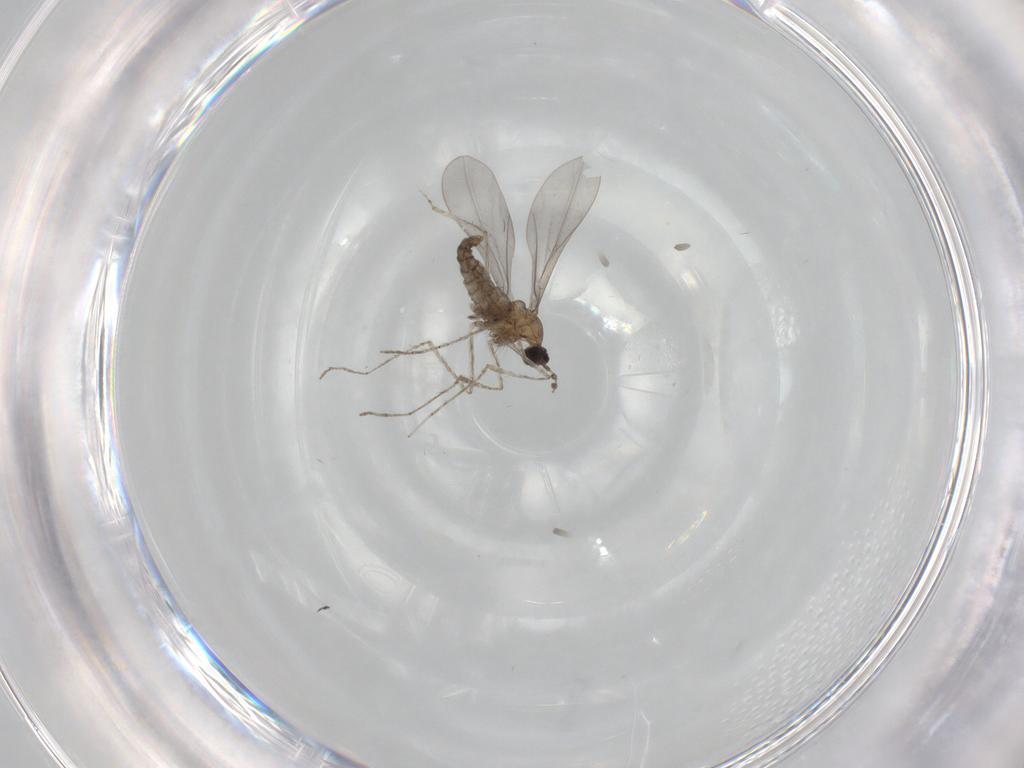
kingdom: Animalia
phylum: Arthropoda
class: Insecta
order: Diptera
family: Cecidomyiidae
